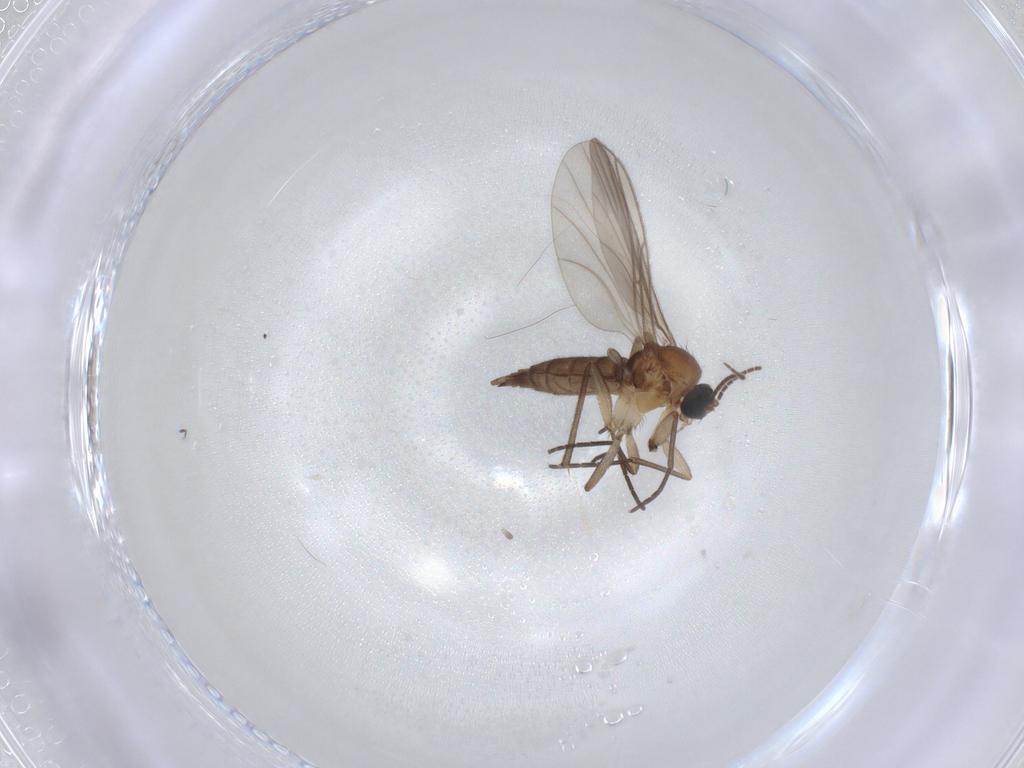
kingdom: Animalia
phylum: Arthropoda
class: Insecta
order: Diptera
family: Sciaridae
